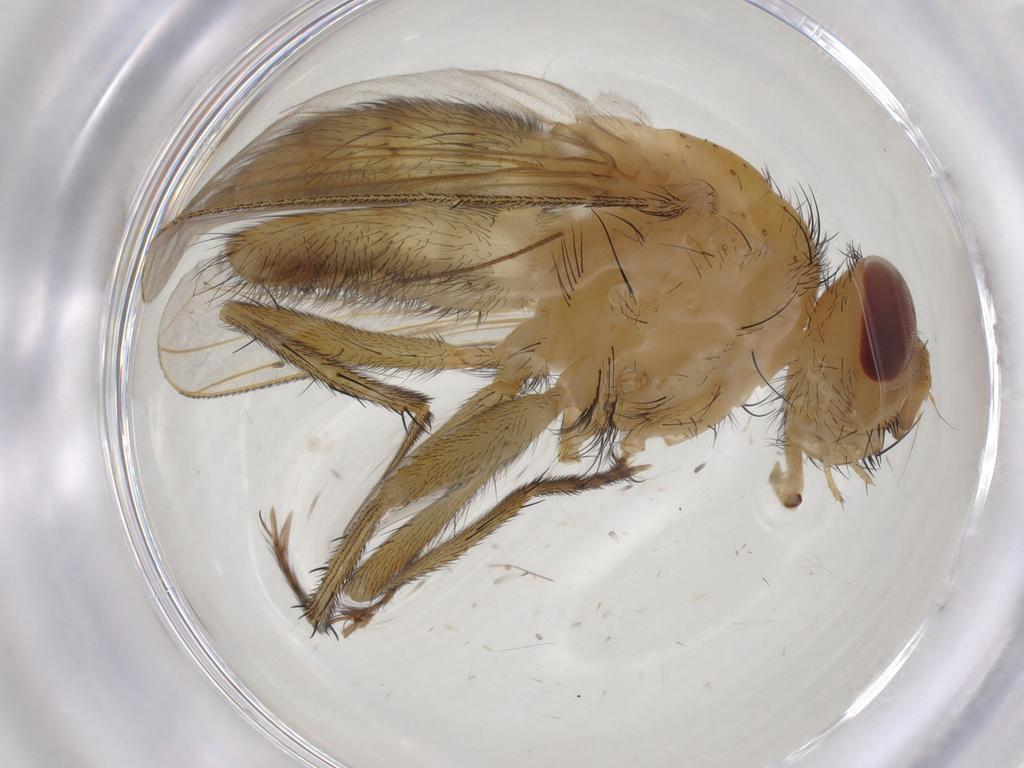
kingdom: Animalia
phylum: Arthropoda
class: Insecta
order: Diptera
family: Tachinidae
